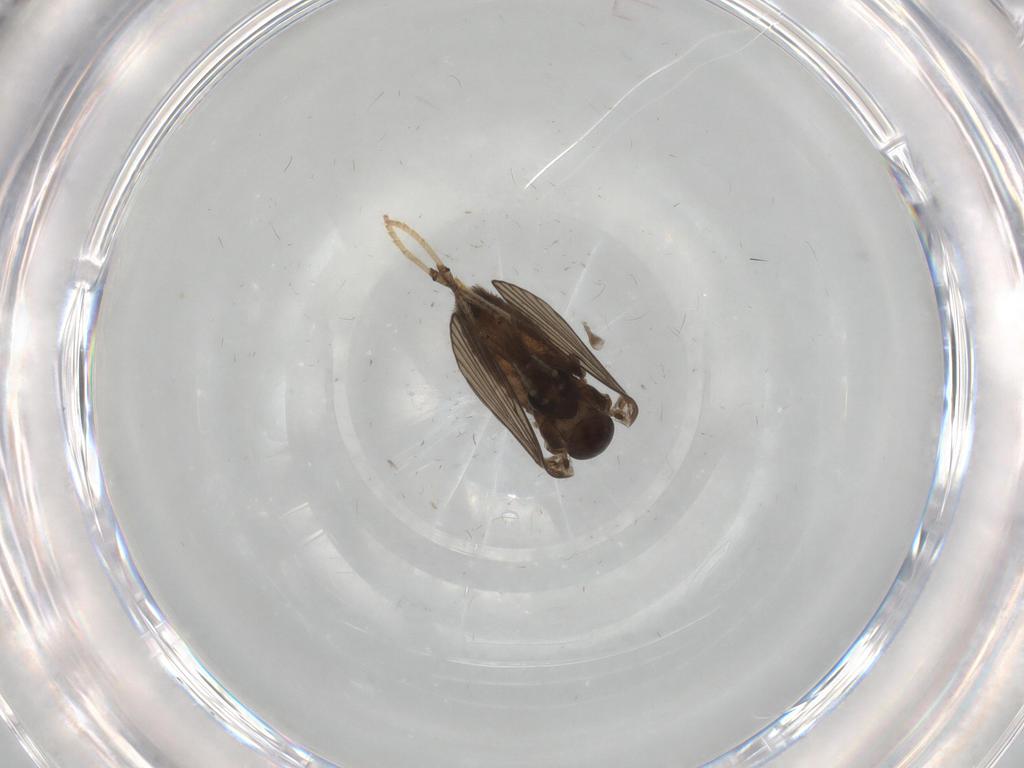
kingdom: Animalia
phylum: Arthropoda
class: Insecta
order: Diptera
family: Psychodidae
